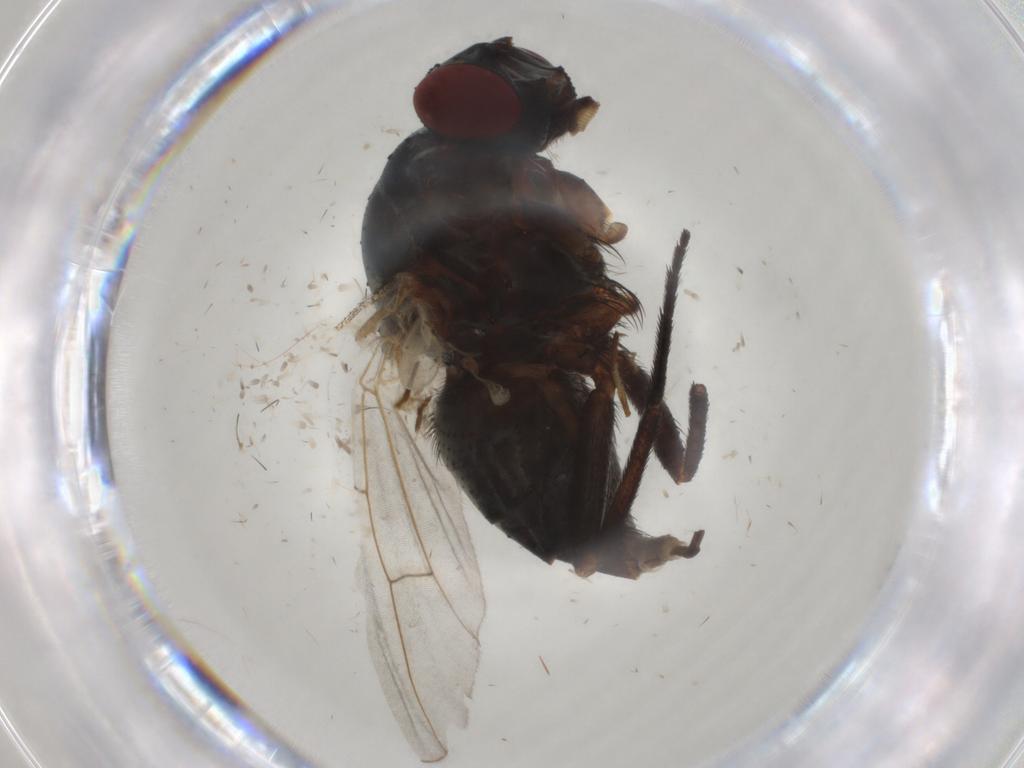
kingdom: Animalia
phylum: Arthropoda
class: Insecta
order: Diptera
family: Muscidae
